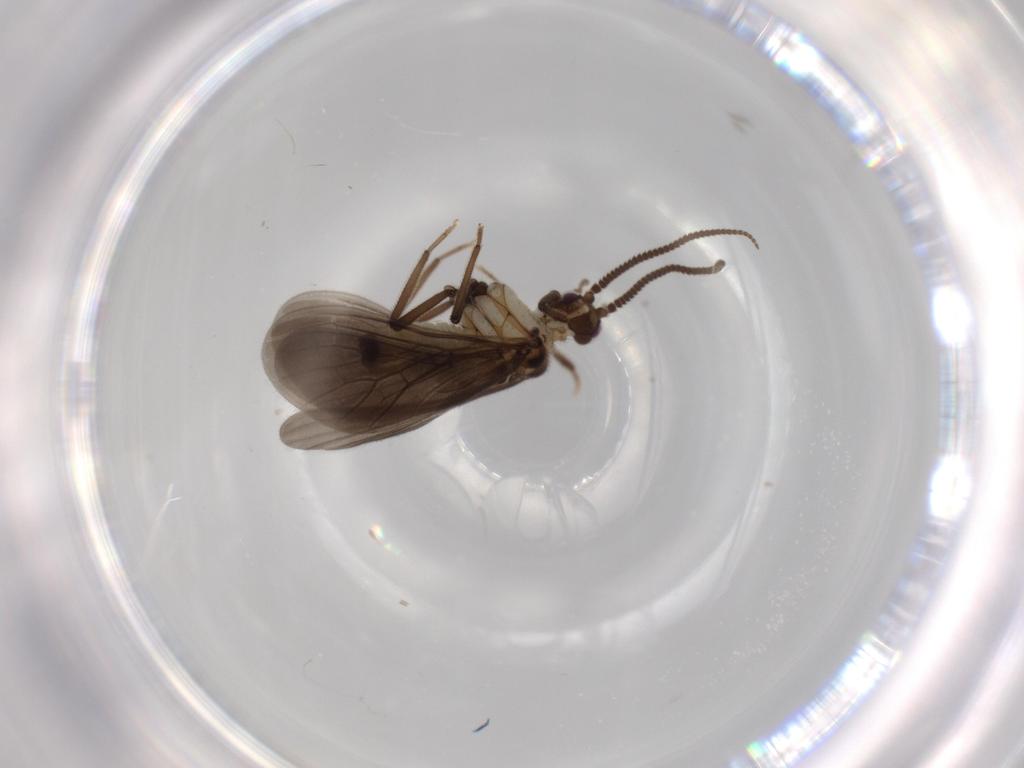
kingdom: Animalia
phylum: Arthropoda
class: Insecta
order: Neuroptera
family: Coniopterygidae
